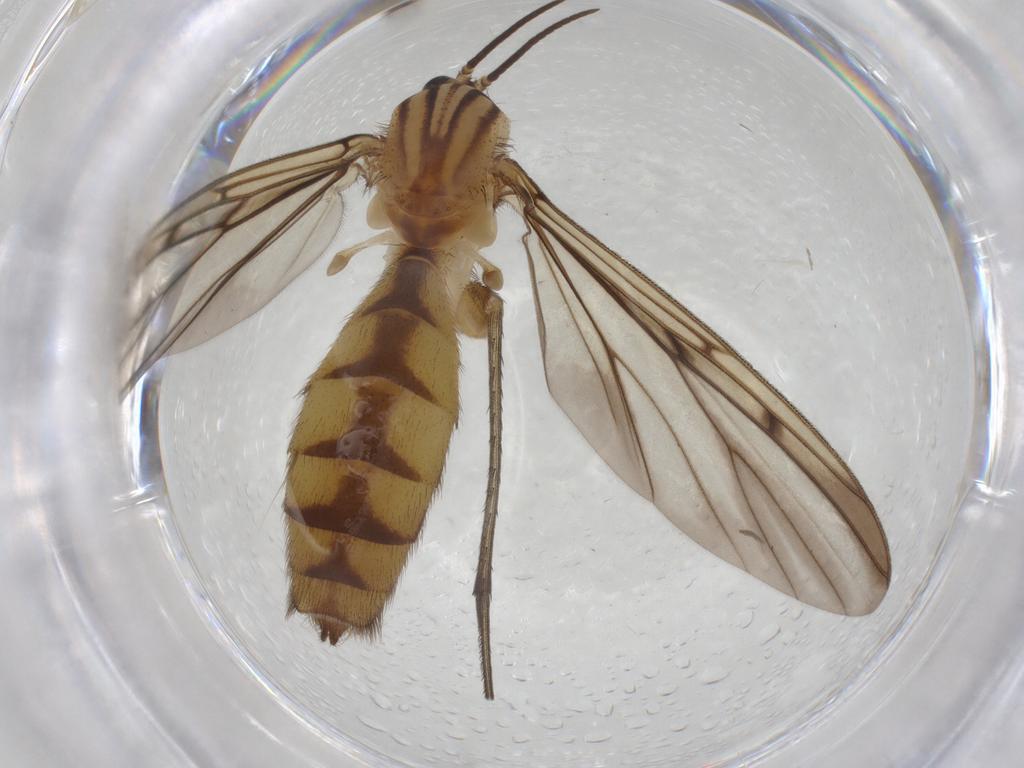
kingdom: Animalia
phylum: Arthropoda
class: Insecta
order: Diptera
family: Mycetophilidae
